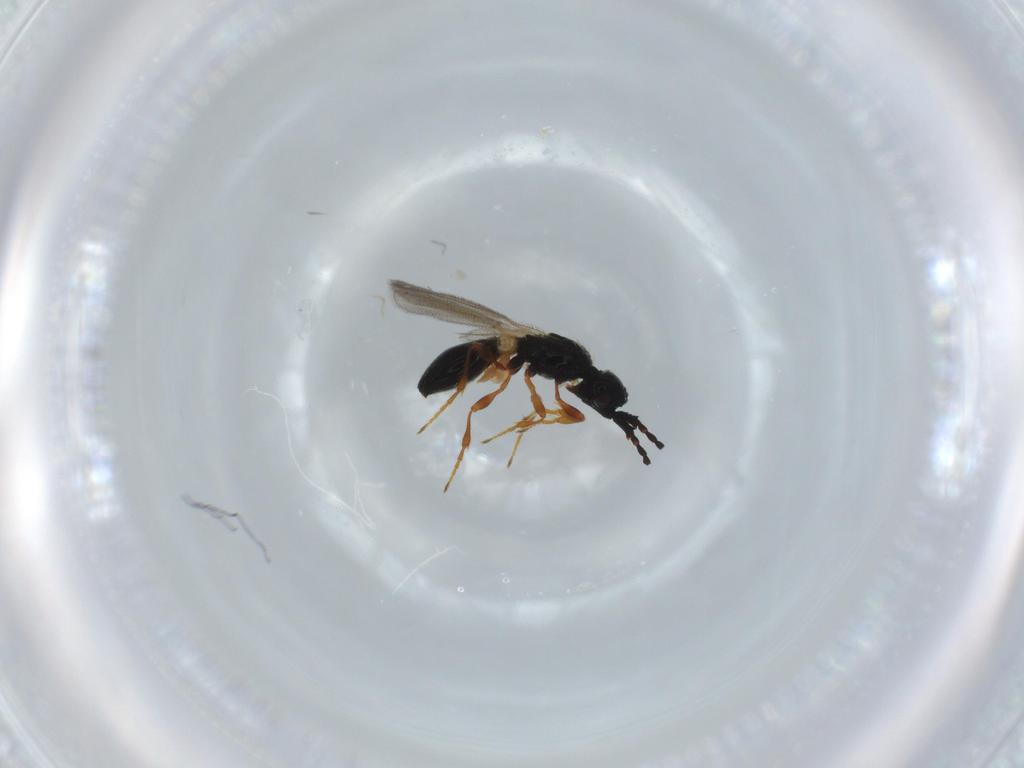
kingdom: Animalia
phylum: Arthropoda
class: Insecta
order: Hymenoptera
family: Diapriidae
